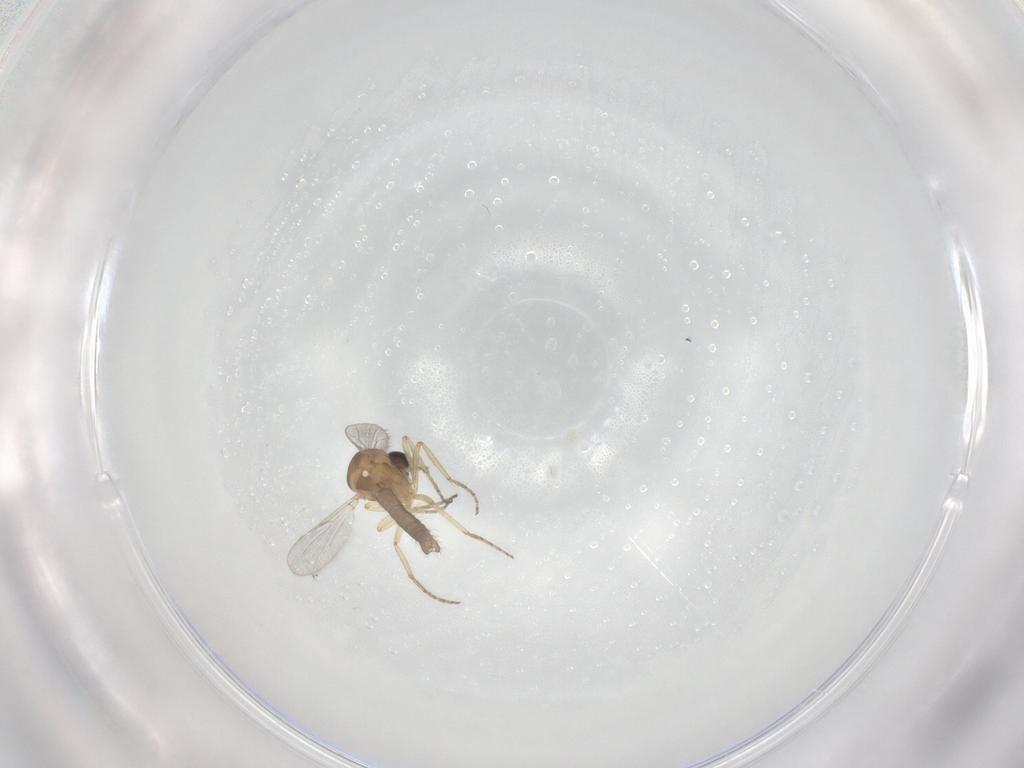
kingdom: Animalia
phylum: Arthropoda
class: Insecta
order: Diptera
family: Ceratopogonidae
